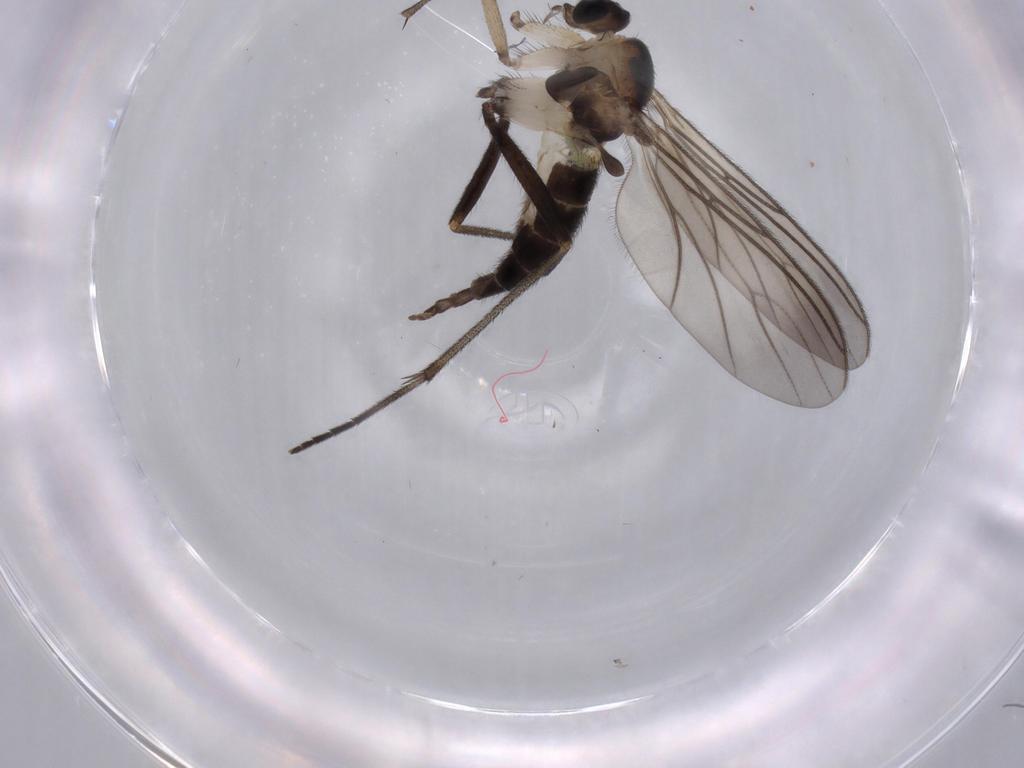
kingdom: Animalia
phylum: Arthropoda
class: Insecta
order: Diptera
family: Sciaridae
